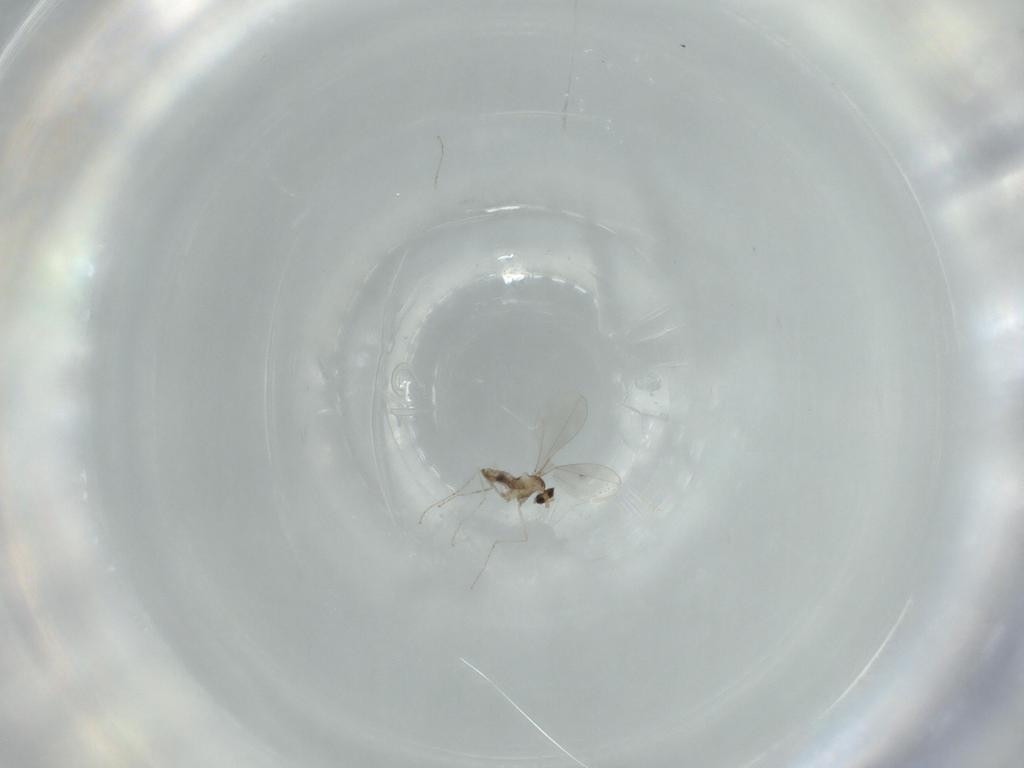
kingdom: Animalia
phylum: Arthropoda
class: Insecta
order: Diptera
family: Cecidomyiidae
